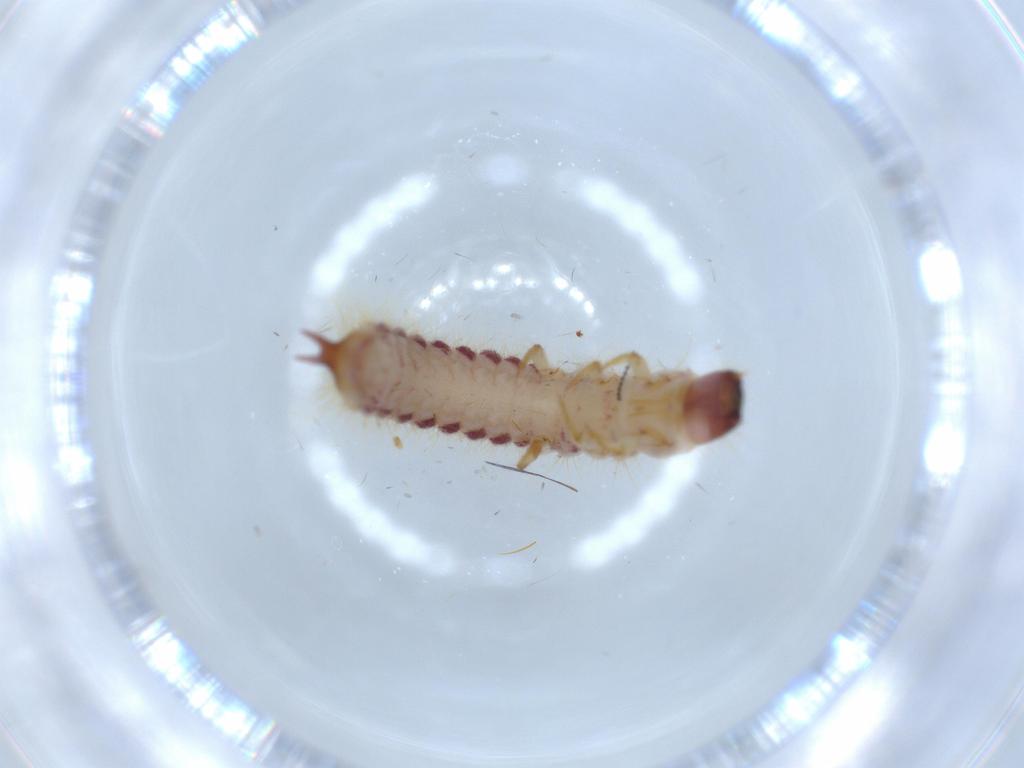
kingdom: Animalia
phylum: Arthropoda
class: Insecta
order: Coleoptera
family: Cleridae
